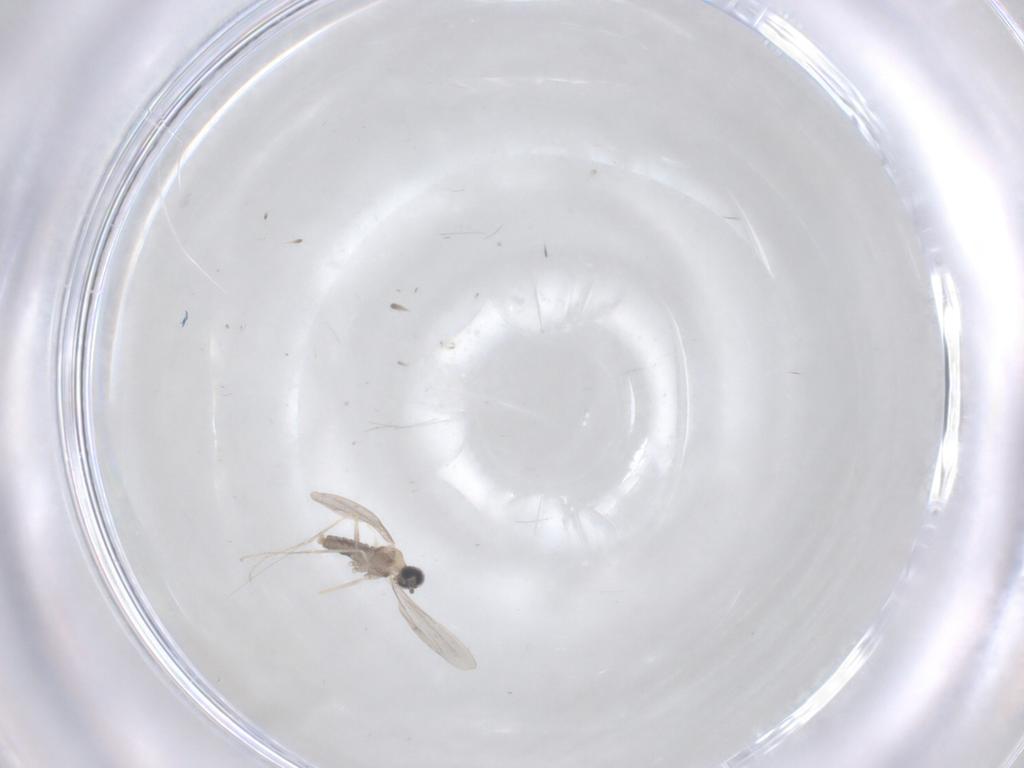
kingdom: Animalia
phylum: Arthropoda
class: Insecta
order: Diptera
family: Cecidomyiidae
